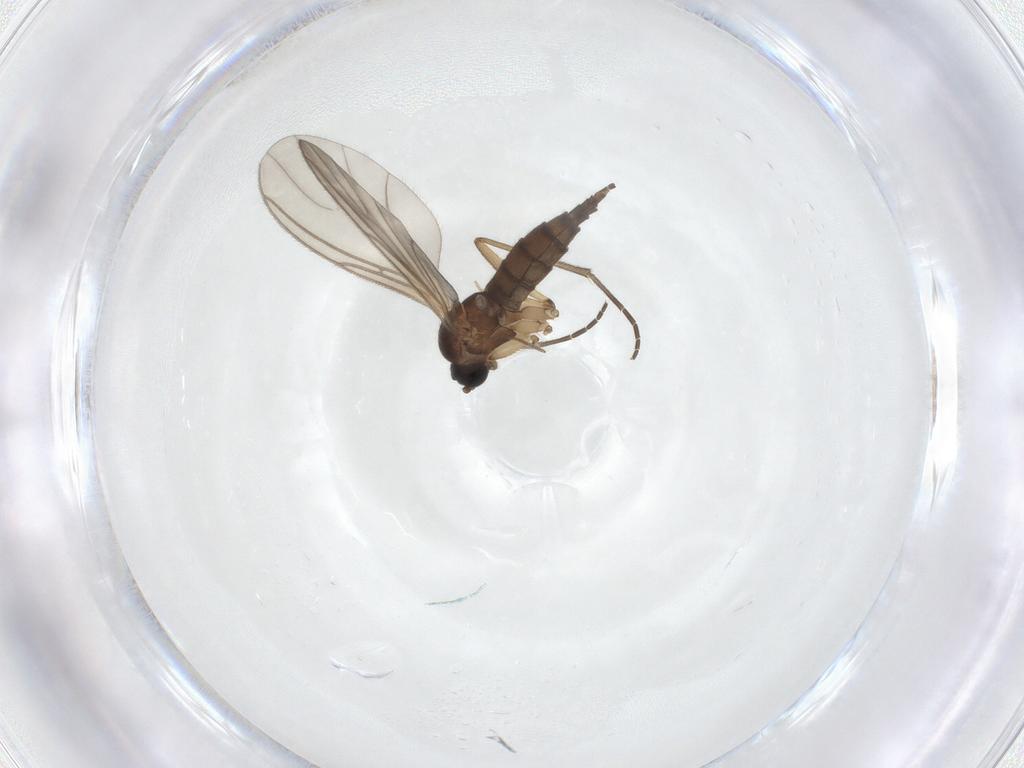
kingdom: Animalia
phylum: Arthropoda
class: Insecta
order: Diptera
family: Sciaridae
